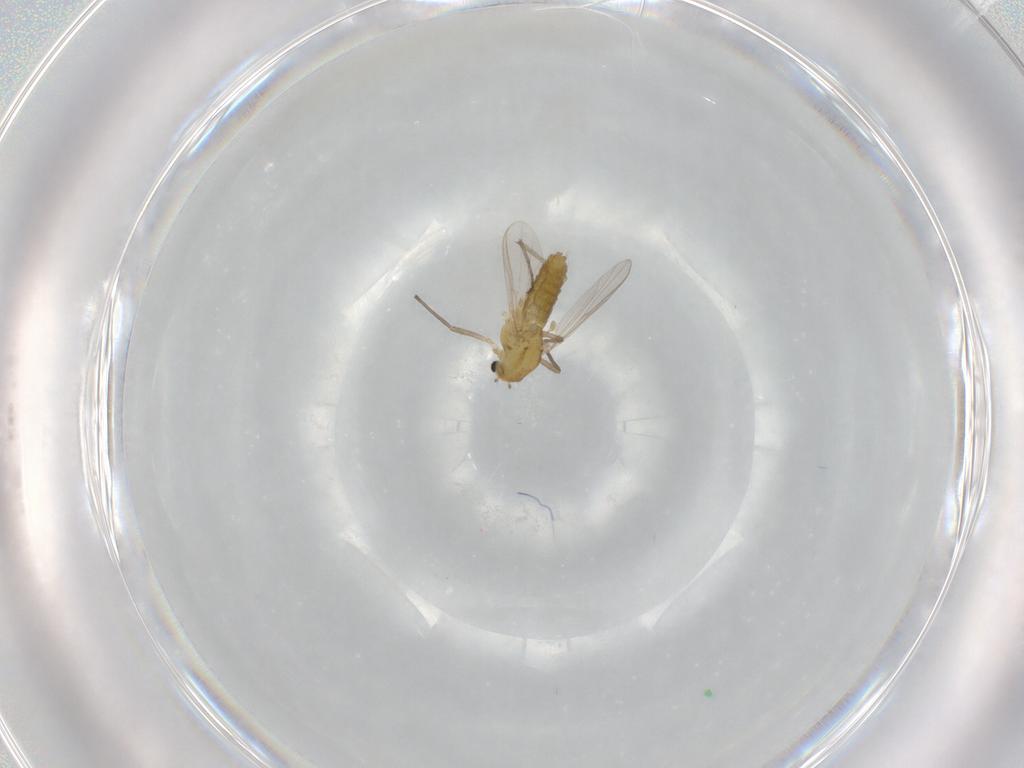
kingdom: Animalia
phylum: Arthropoda
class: Insecta
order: Diptera
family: Chironomidae
